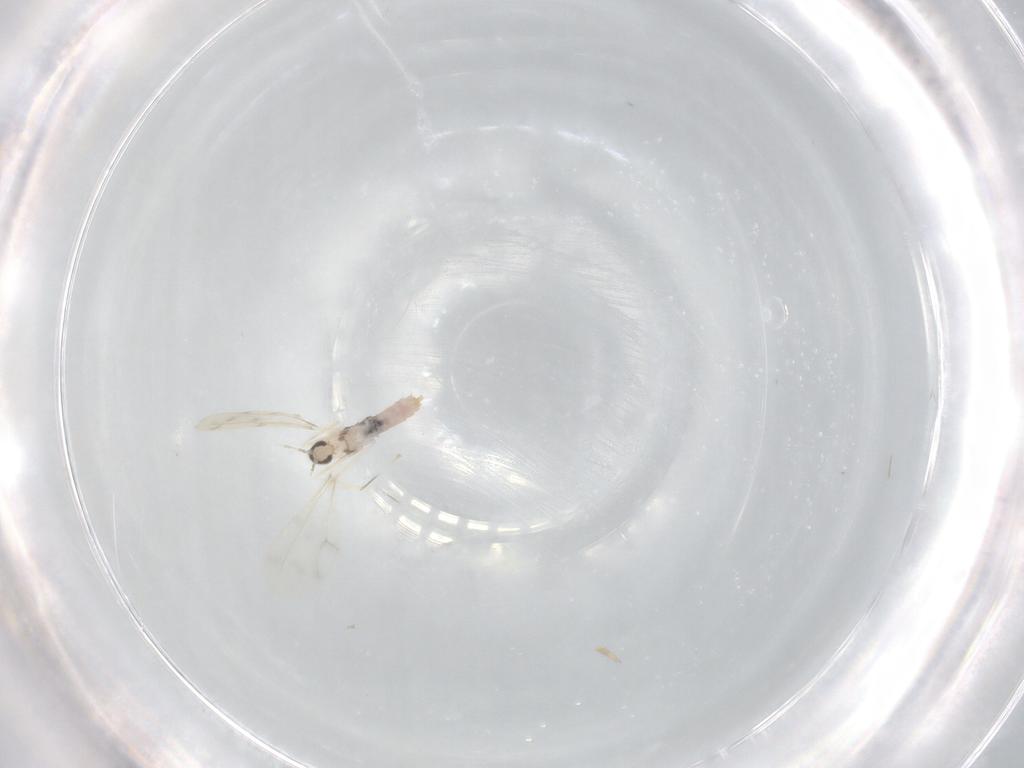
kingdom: Animalia
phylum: Arthropoda
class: Insecta
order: Diptera
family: Cecidomyiidae
